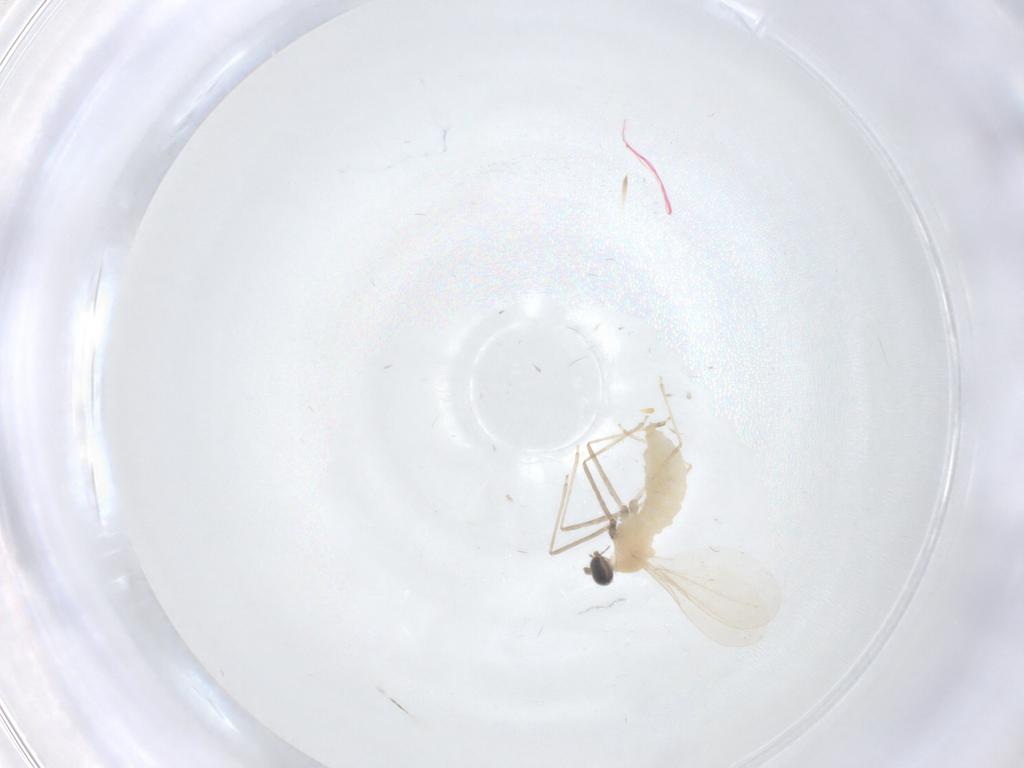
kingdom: Animalia
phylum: Arthropoda
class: Insecta
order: Diptera
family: Cecidomyiidae
